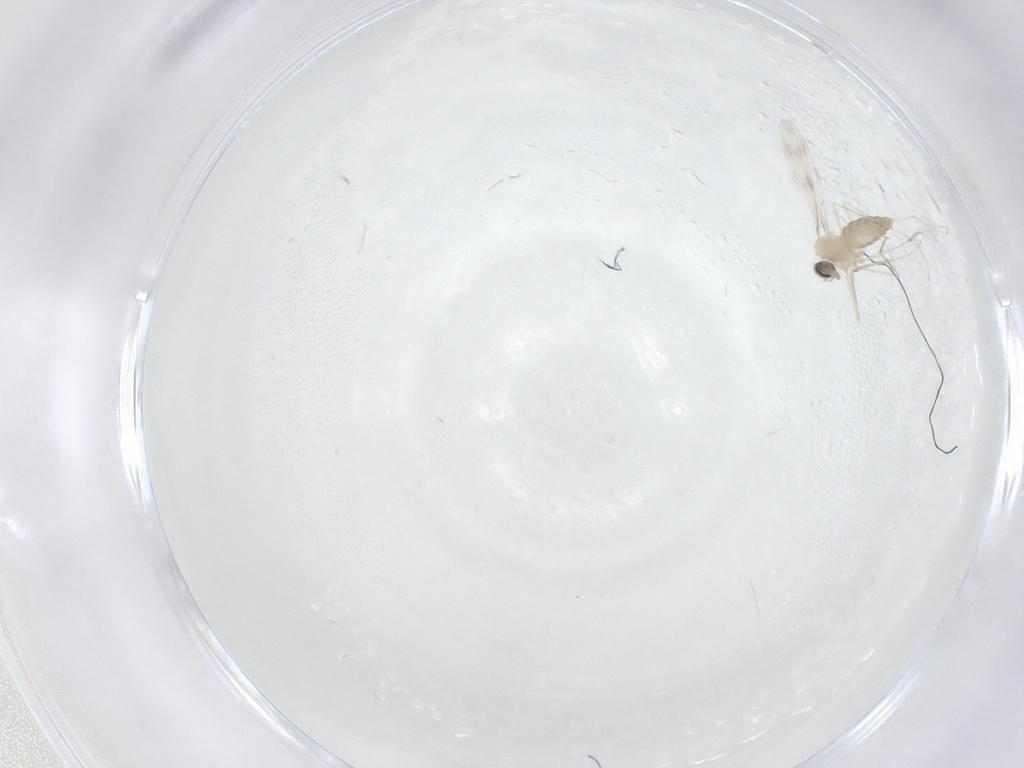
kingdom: Animalia
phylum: Arthropoda
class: Insecta
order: Diptera
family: Cecidomyiidae
